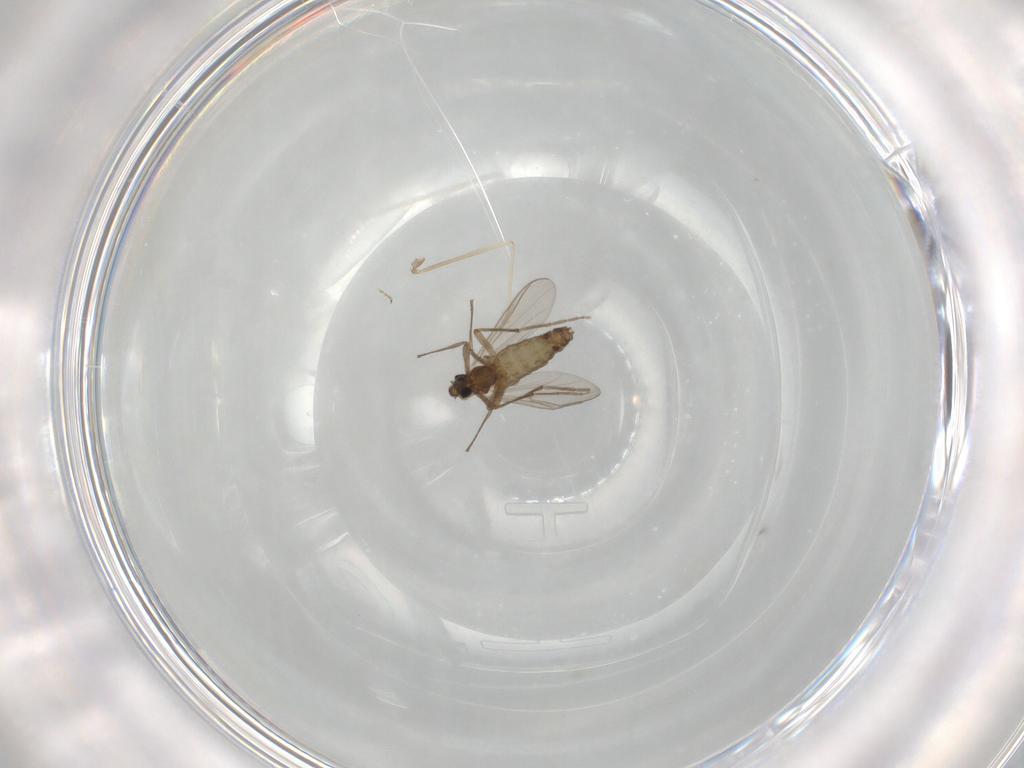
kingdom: Animalia
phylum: Arthropoda
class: Insecta
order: Diptera
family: Chironomidae
